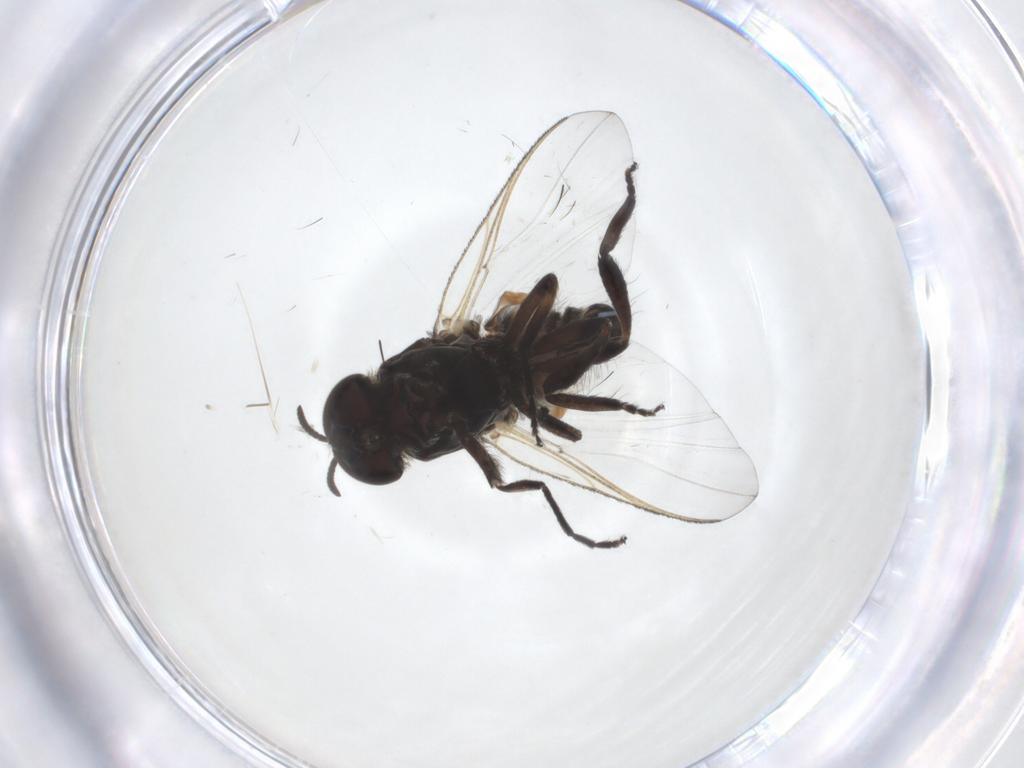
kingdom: Animalia
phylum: Arthropoda
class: Insecta
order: Diptera
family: Phoridae
